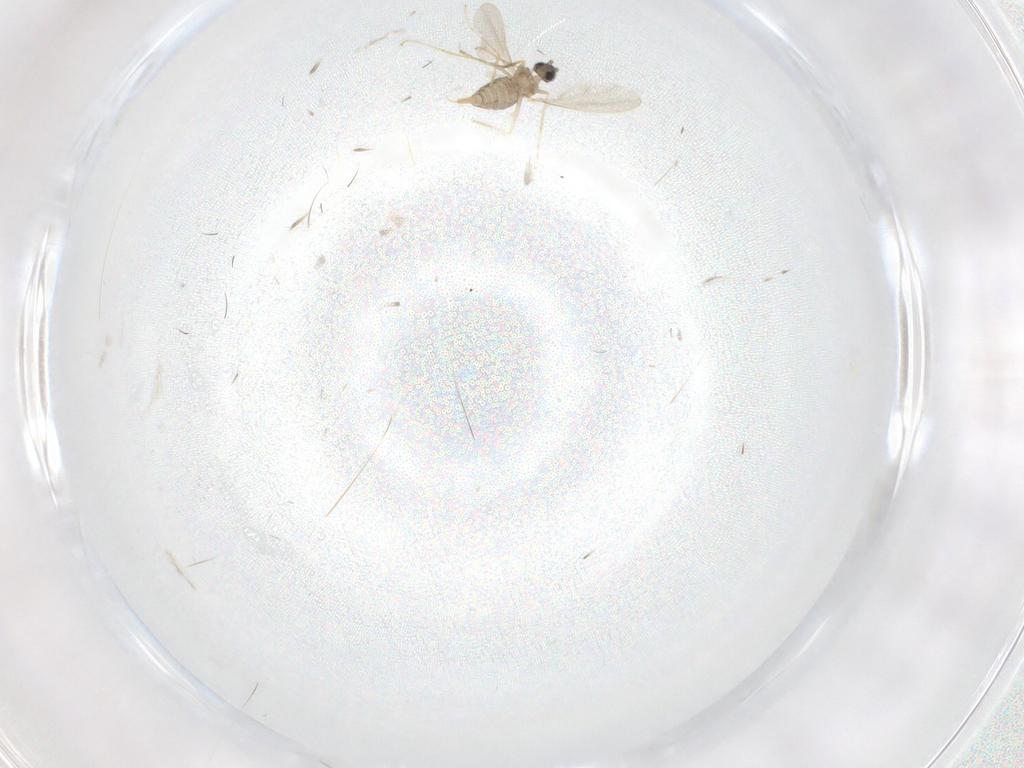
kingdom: Animalia
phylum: Arthropoda
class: Insecta
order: Diptera
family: Cecidomyiidae
